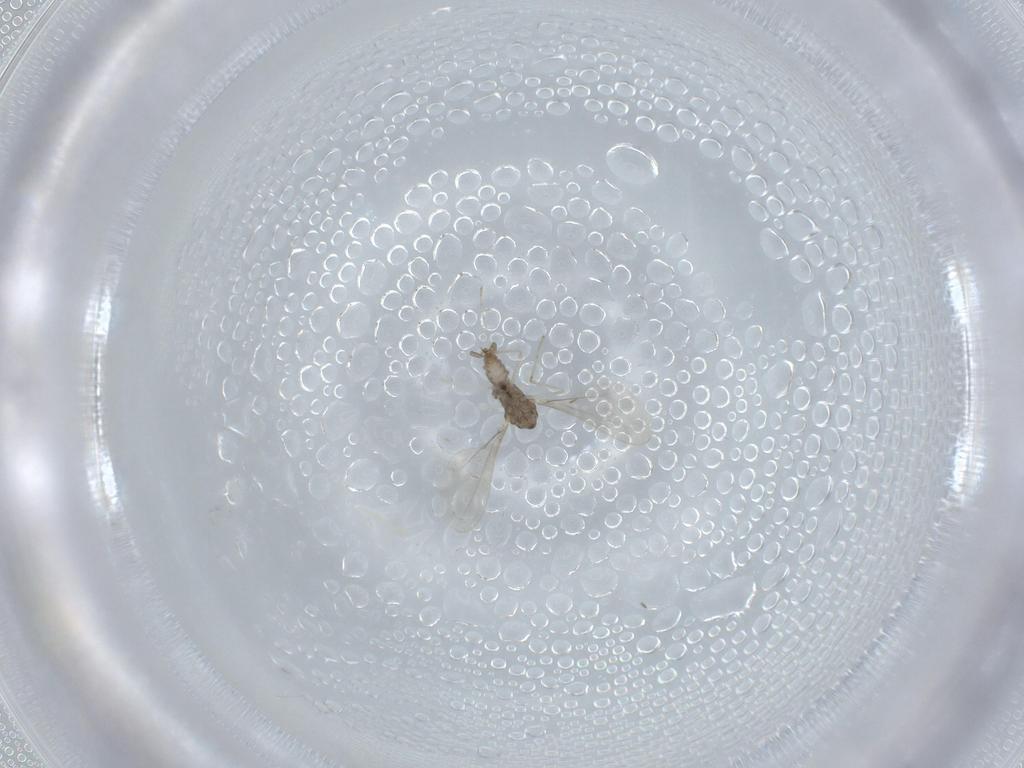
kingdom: Animalia
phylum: Arthropoda
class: Insecta
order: Diptera
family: Cecidomyiidae
